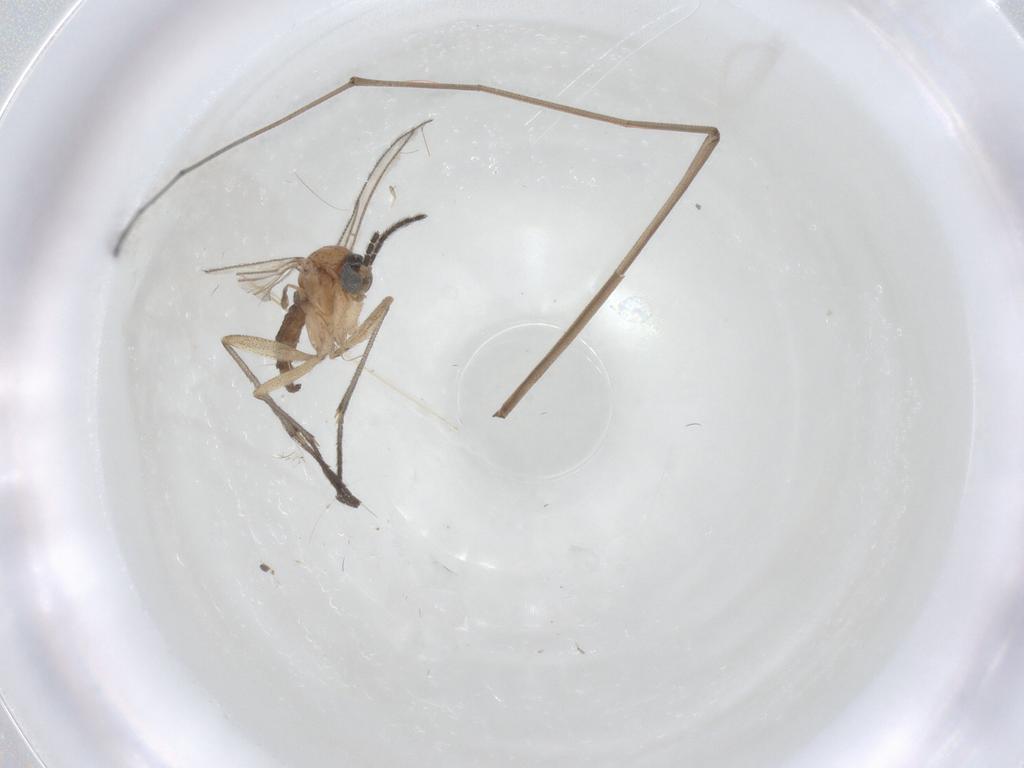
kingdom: Animalia
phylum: Arthropoda
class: Insecta
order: Diptera
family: Sciaridae
